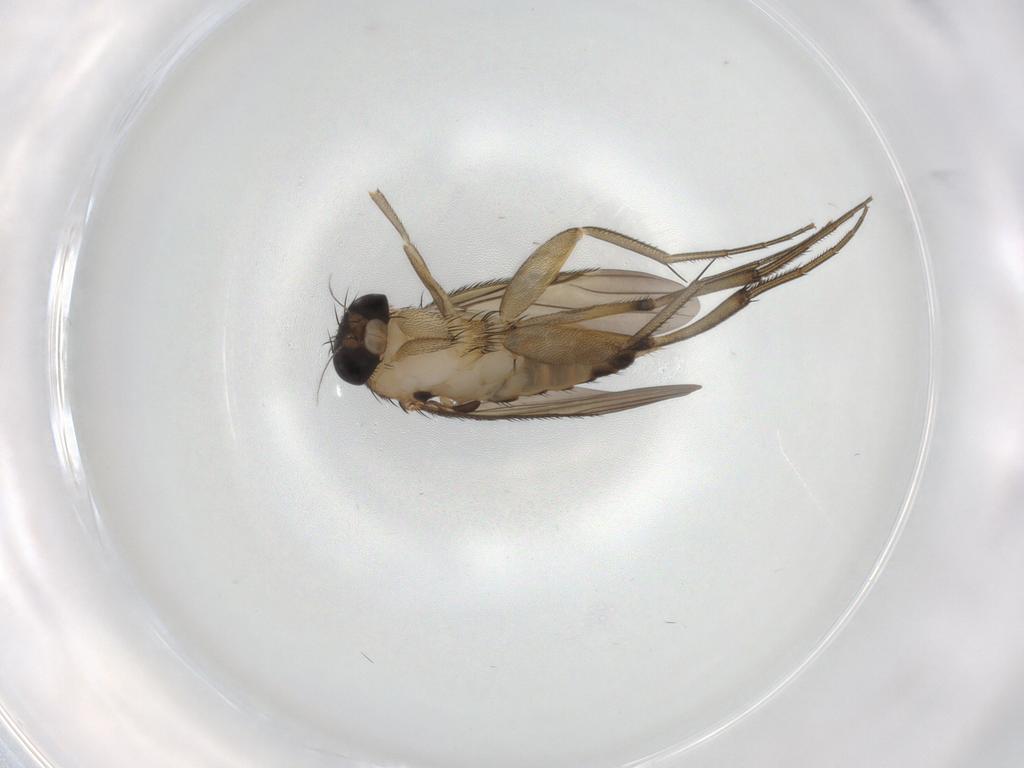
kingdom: Animalia
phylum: Arthropoda
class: Insecta
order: Diptera
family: Phoridae
